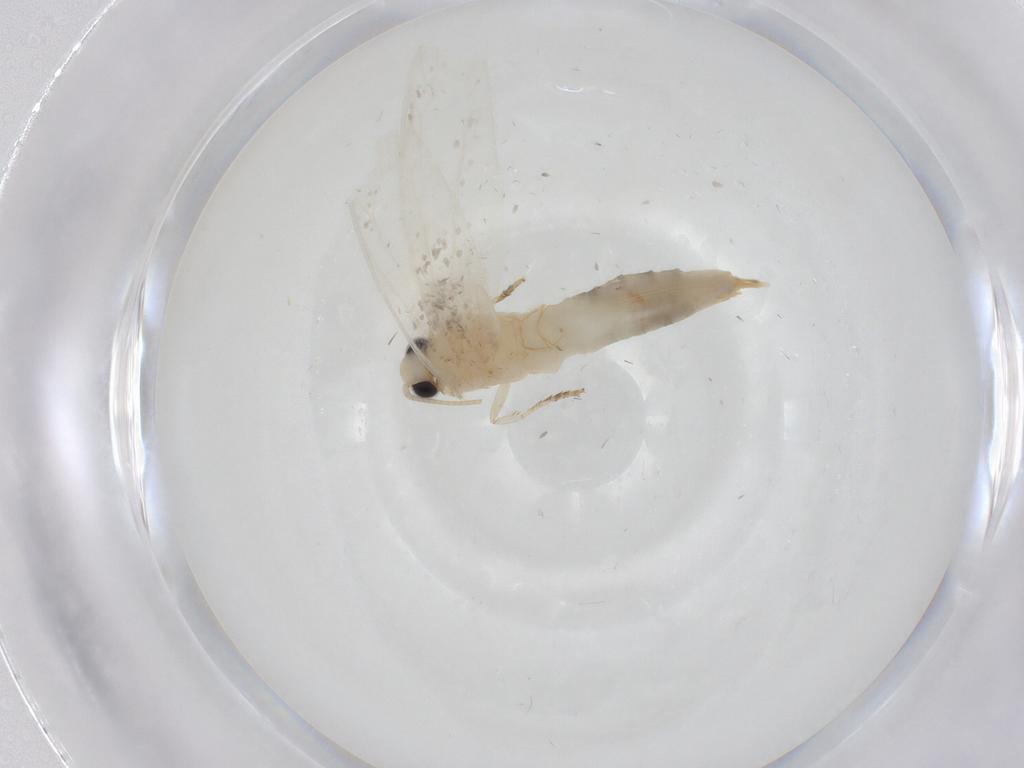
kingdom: Animalia
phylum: Arthropoda
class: Insecta
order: Lepidoptera
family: Tineidae
